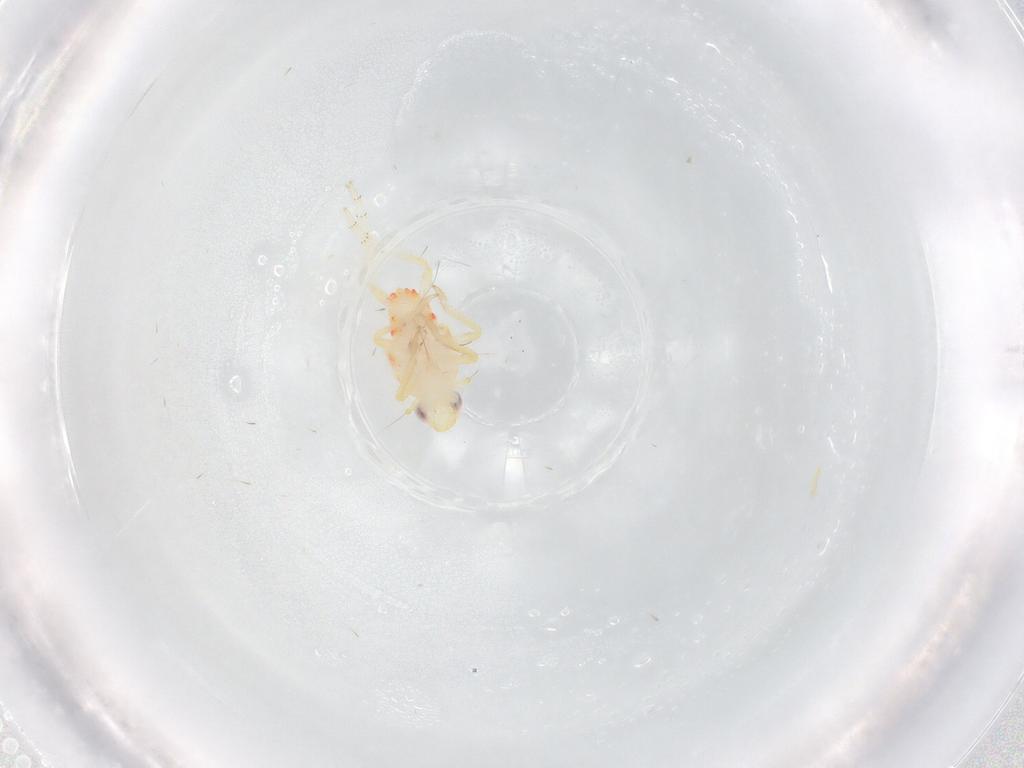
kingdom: Animalia
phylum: Arthropoda
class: Insecta
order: Hemiptera
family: Tropiduchidae
